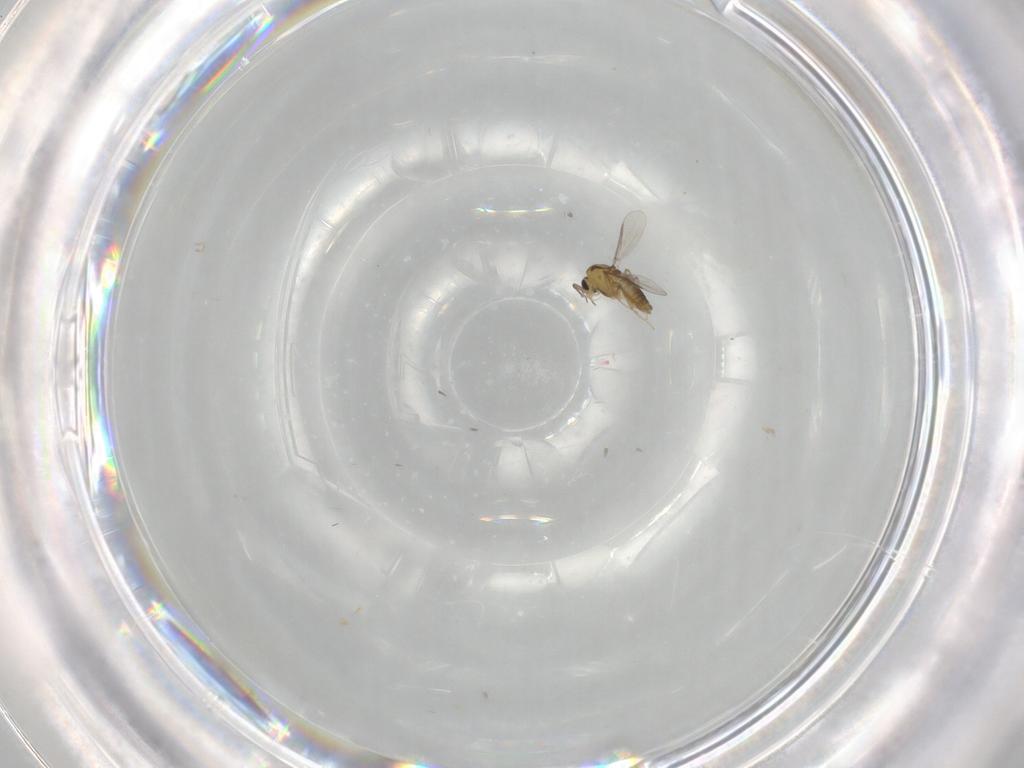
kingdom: Animalia
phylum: Arthropoda
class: Insecta
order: Diptera
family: Chironomidae
